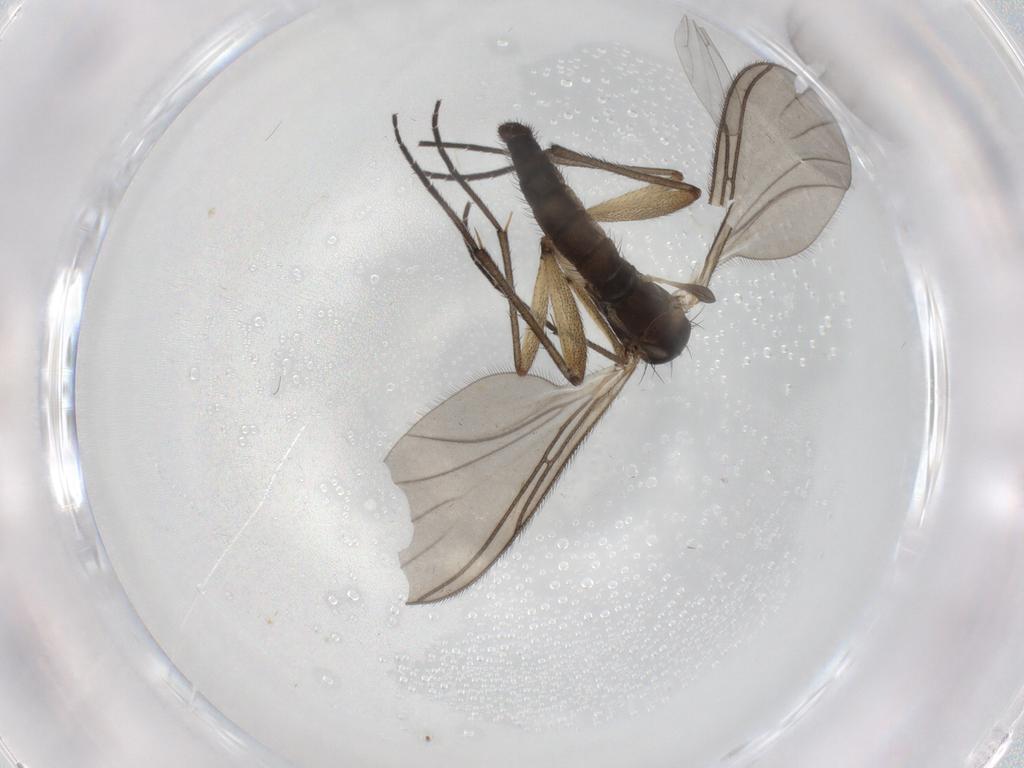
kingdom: Animalia
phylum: Arthropoda
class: Insecta
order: Diptera
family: Sciaridae
